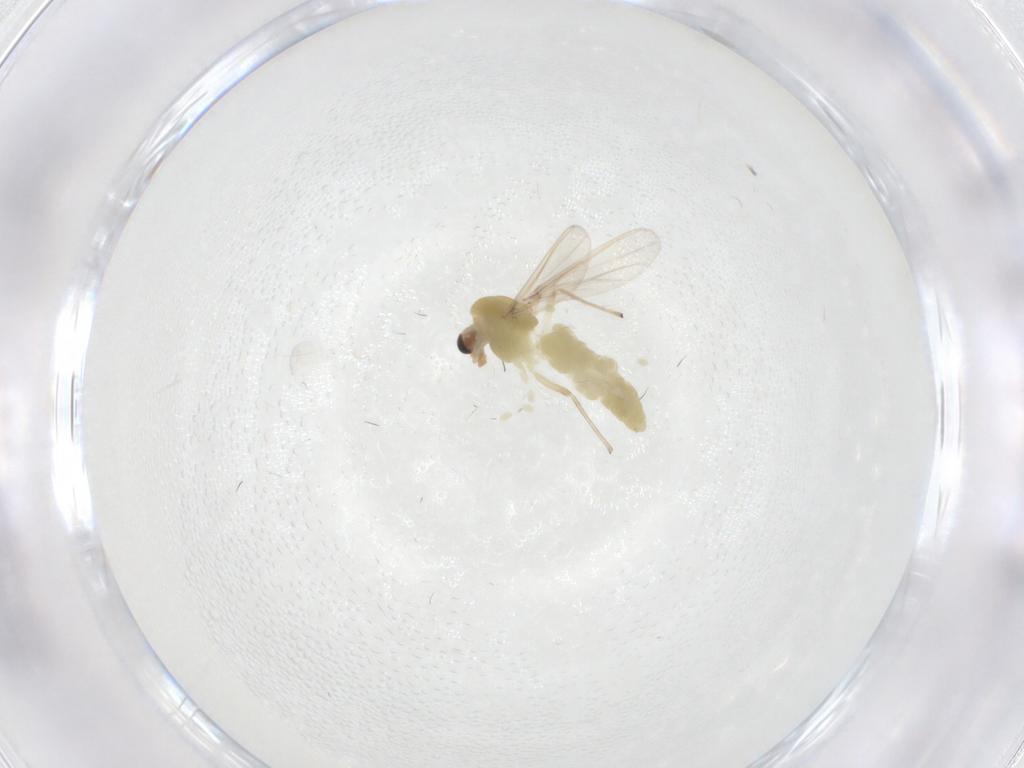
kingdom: Animalia
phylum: Arthropoda
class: Insecta
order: Diptera
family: Chironomidae
